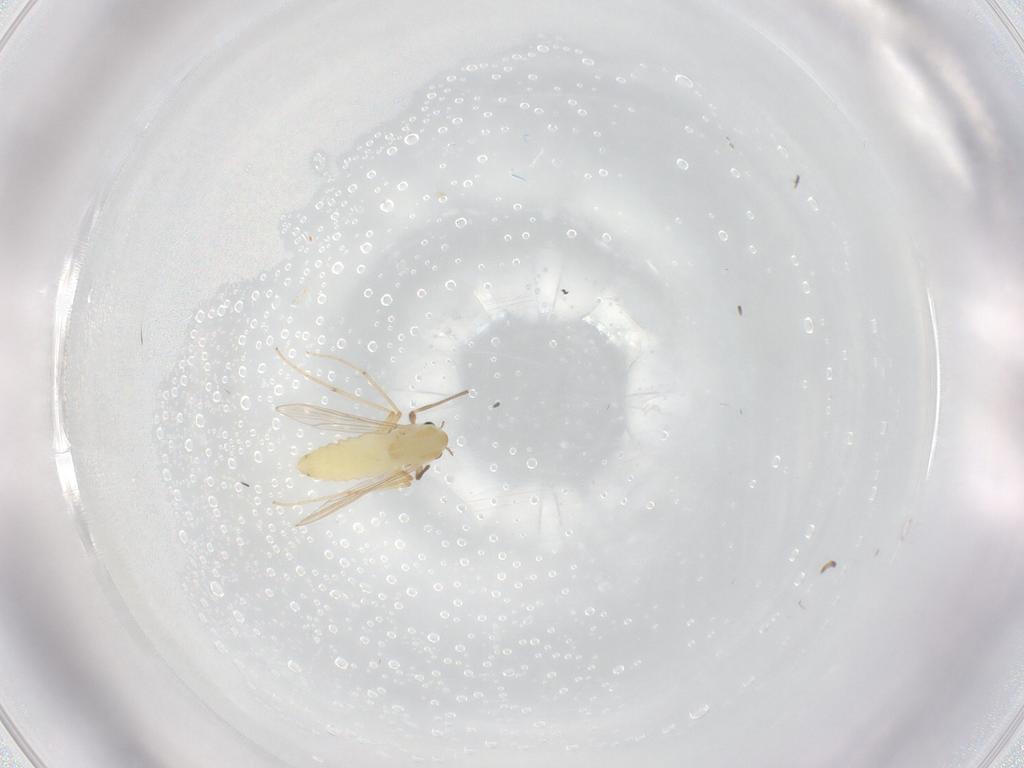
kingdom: Animalia
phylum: Arthropoda
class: Insecta
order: Diptera
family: Chironomidae
